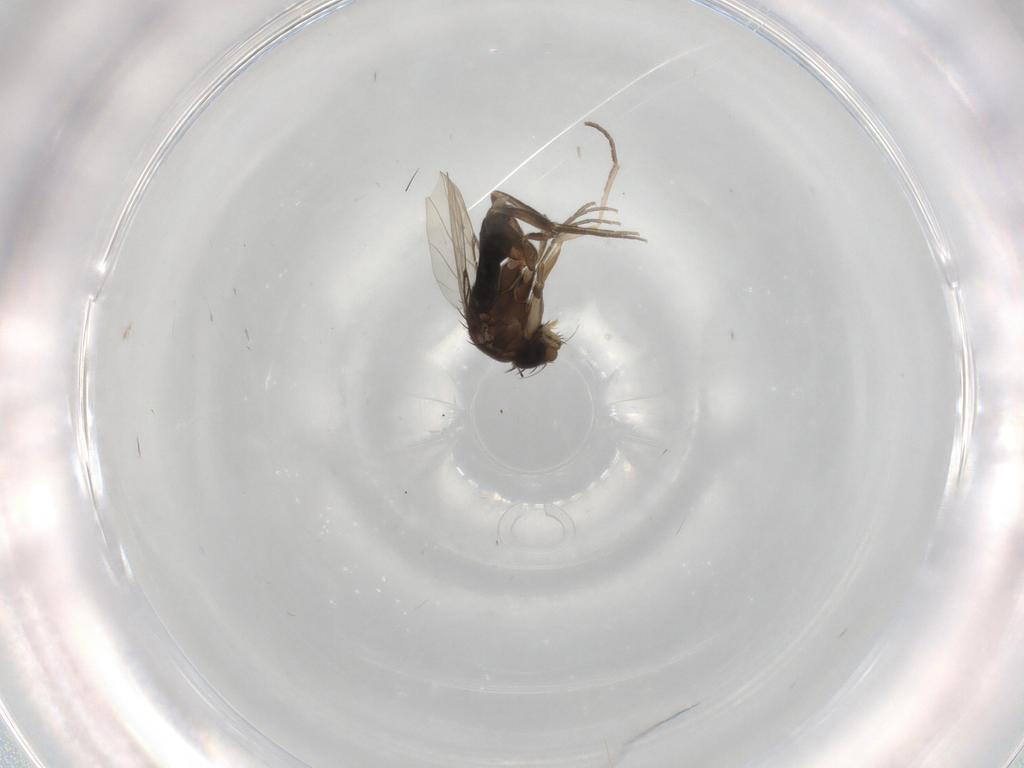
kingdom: Animalia
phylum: Arthropoda
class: Insecta
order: Diptera
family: Phoridae
